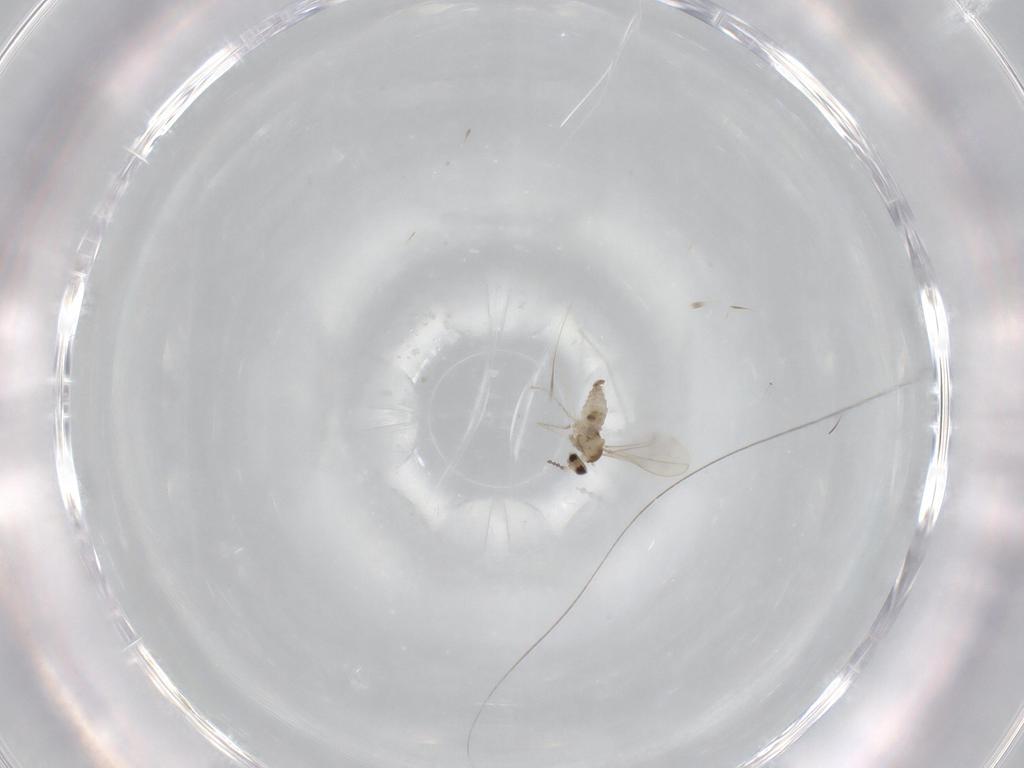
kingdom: Animalia
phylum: Arthropoda
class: Insecta
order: Diptera
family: Cecidomyiidae
